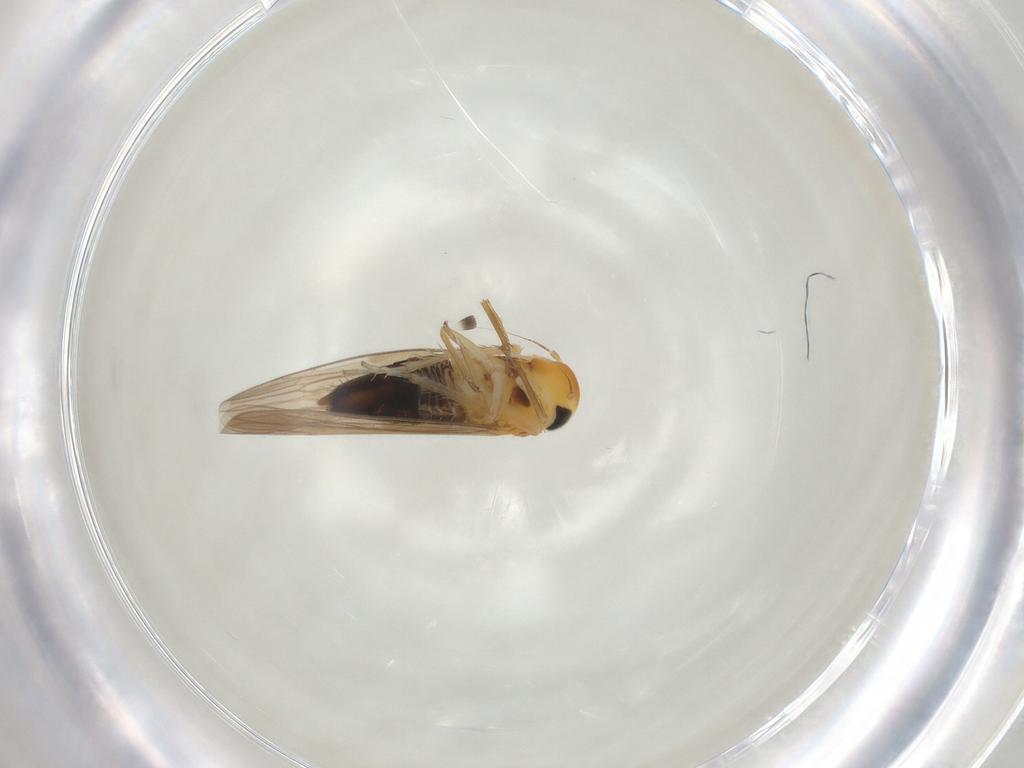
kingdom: Animalia
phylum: Arthropoda
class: Insecta
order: Hemiptera
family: Cicadellidae
